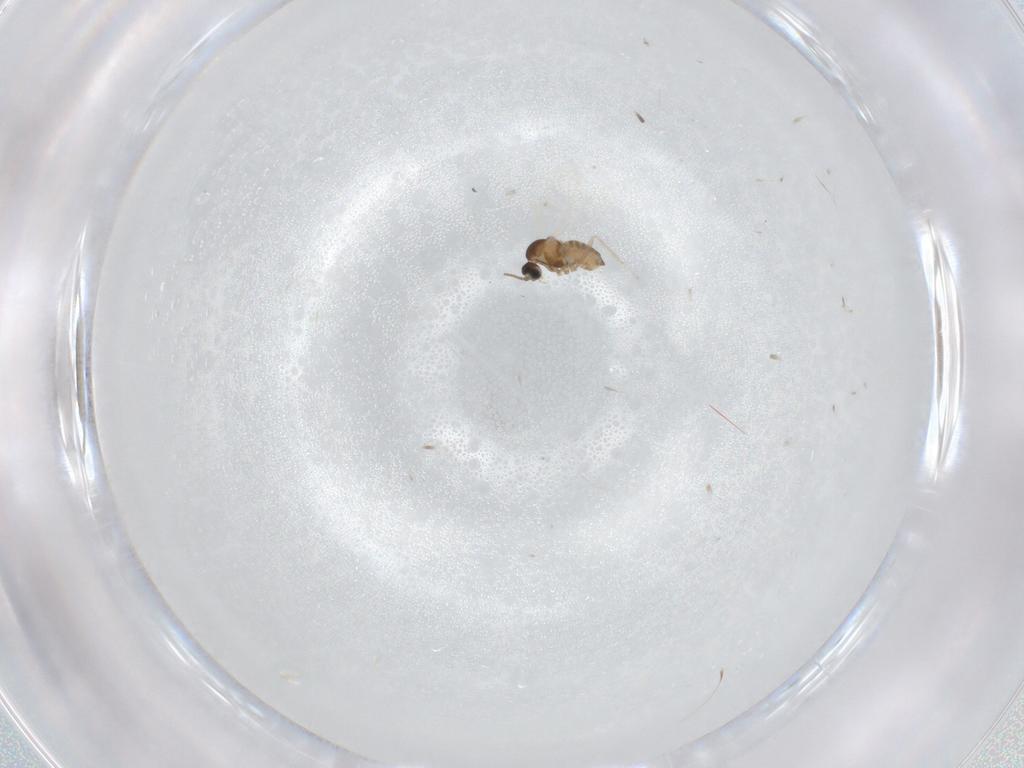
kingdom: Animalia
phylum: Arthropoda
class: Insecta
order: Diptera
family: Cecidomyiidae
